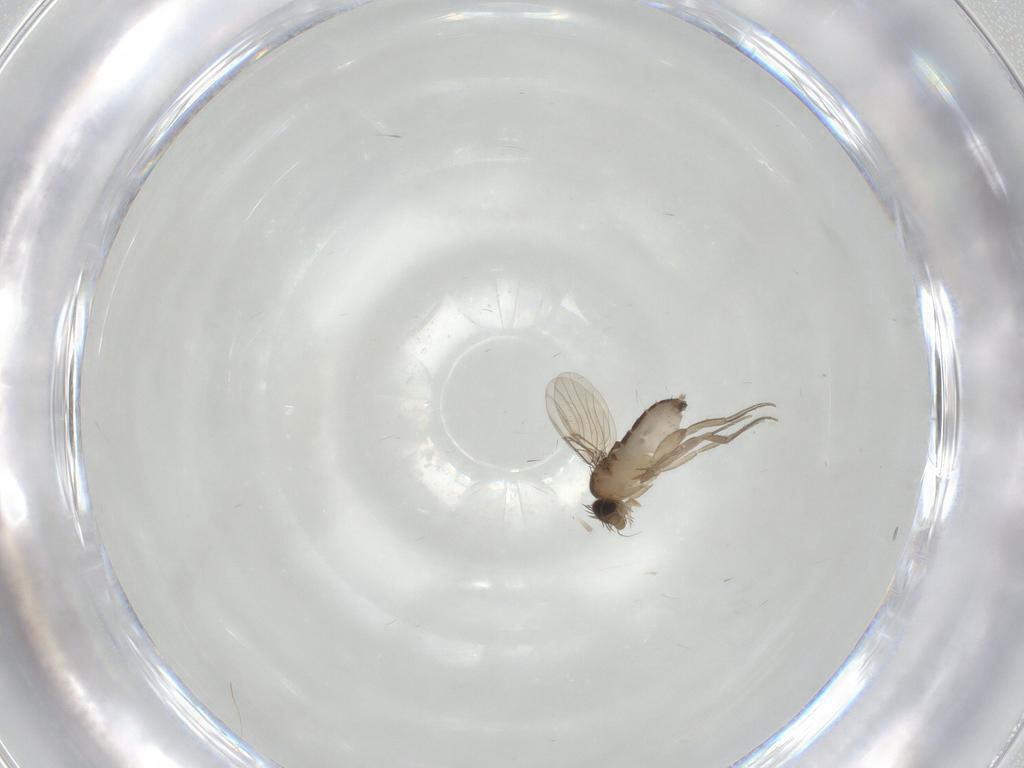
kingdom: Animalia
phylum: Arthropoda
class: Insecta
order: Diptera
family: Phoridae
